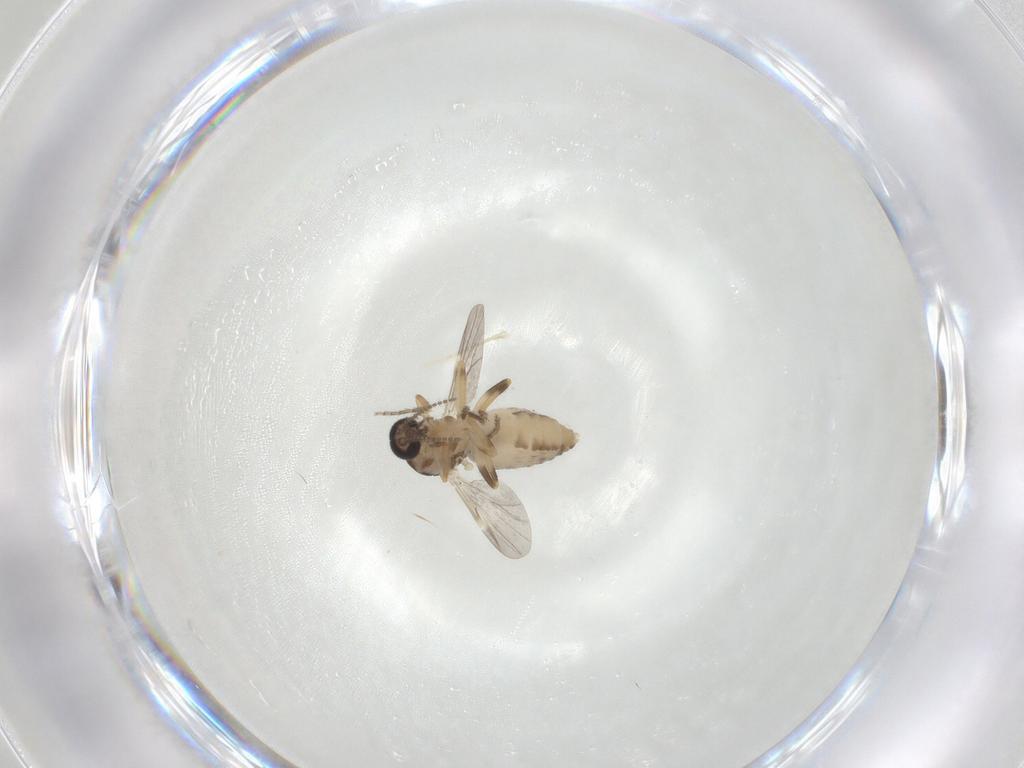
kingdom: Animalia
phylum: Arthropoda
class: Insecta
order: Diptera
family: Ceratopogonidae
